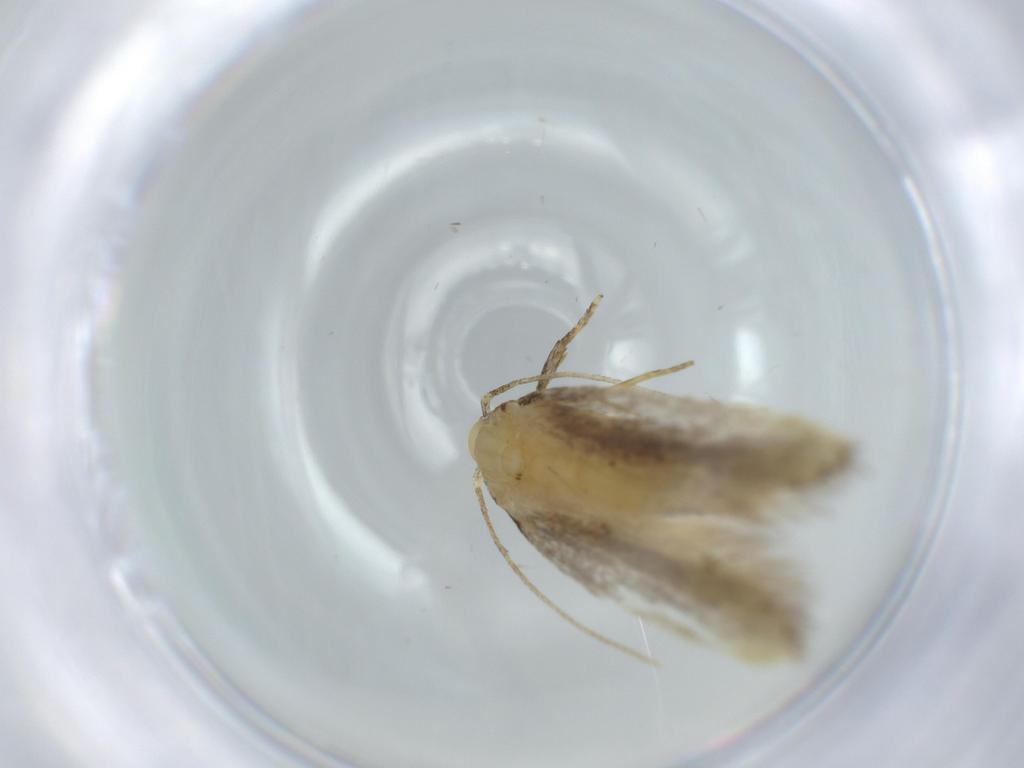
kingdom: Animalia
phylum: Arthropoda
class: Insecta
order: Lepidoptera
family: Autostichidae
